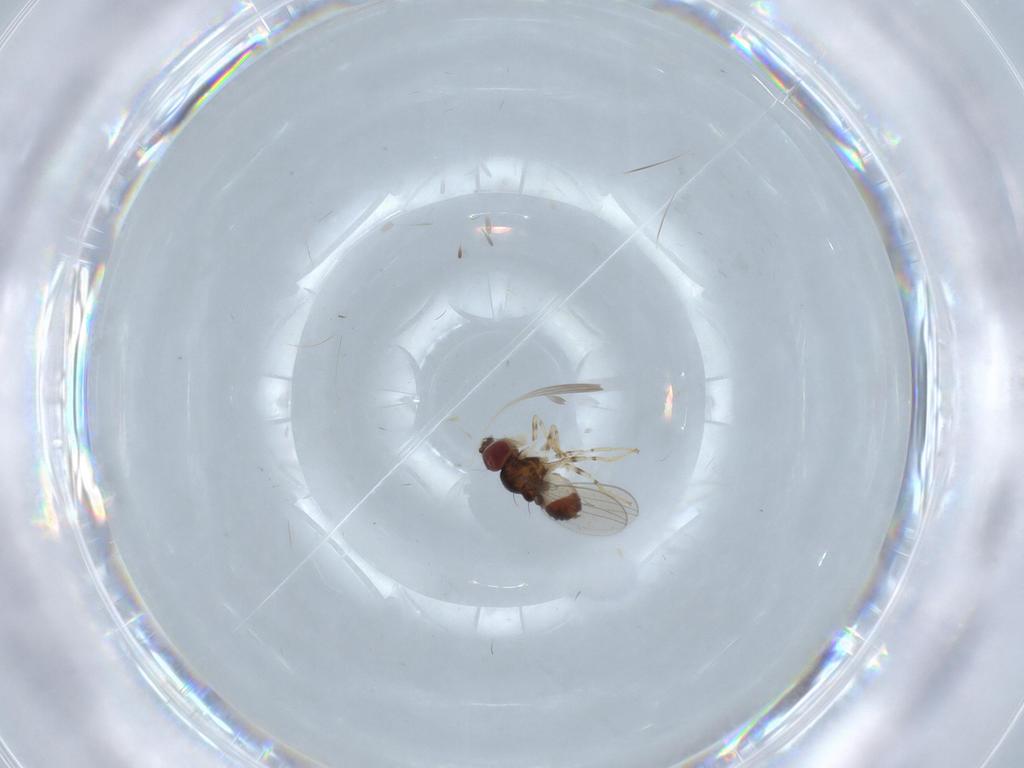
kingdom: Animalia
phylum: Arthropoda
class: Insecta
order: Diptera
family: Asteiidae
